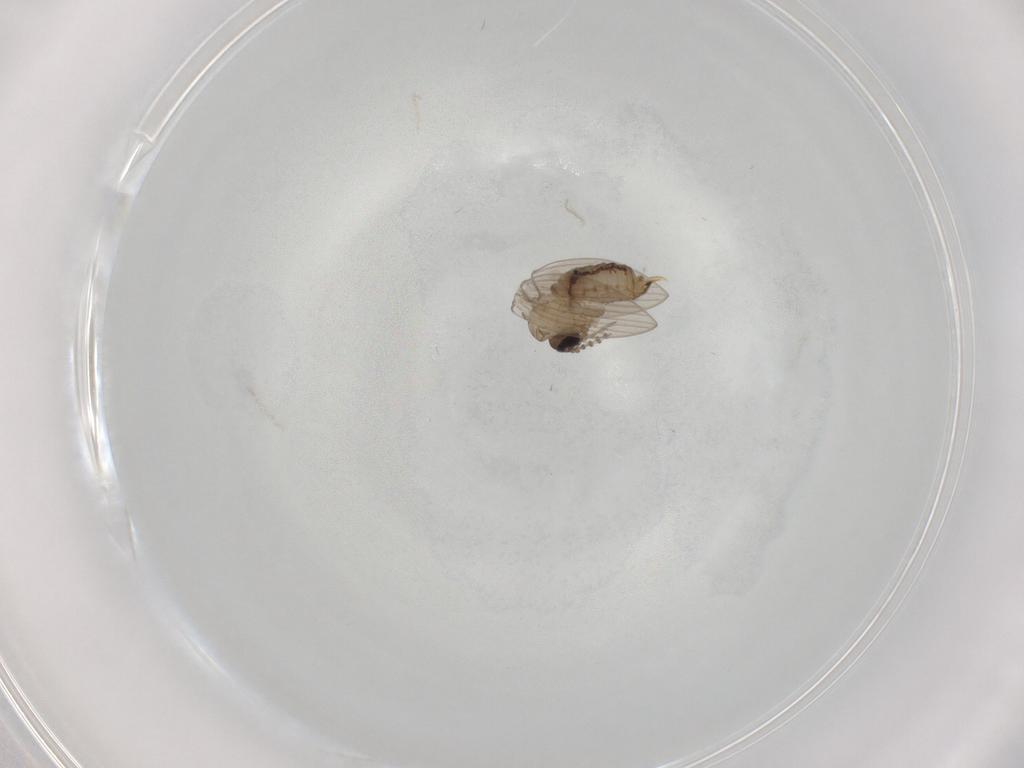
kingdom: Animalia
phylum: Arthropoda
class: Insecta
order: Diptera
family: Psychodidae
